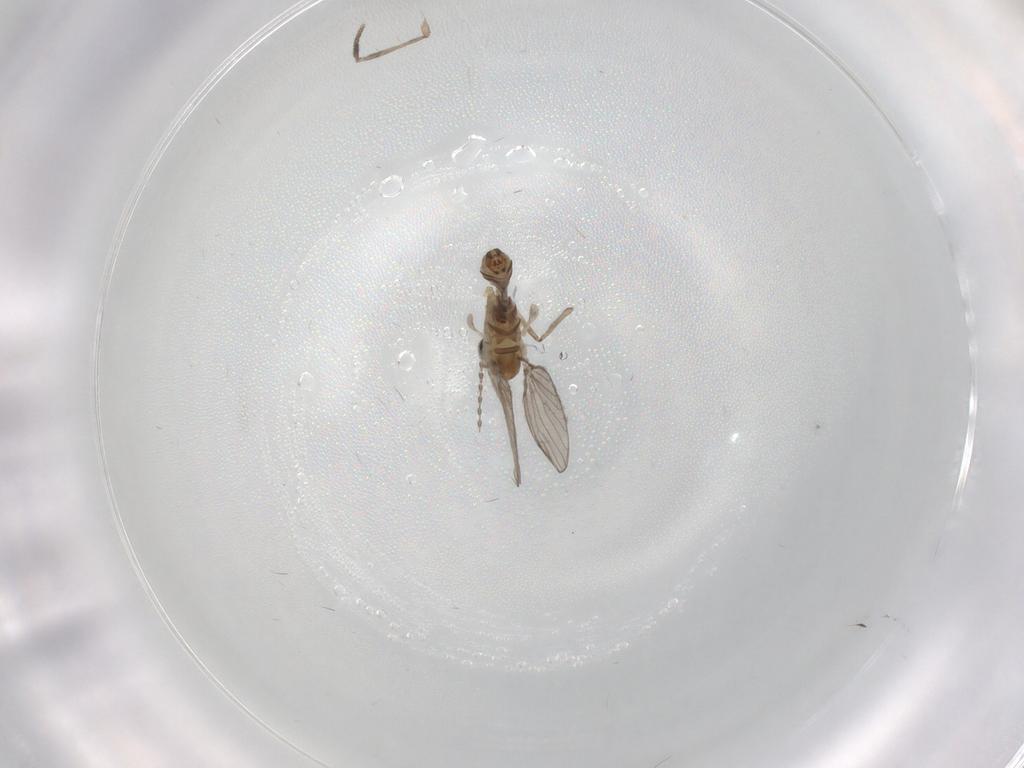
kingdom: Animalia
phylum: Arthropoda
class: Insecta
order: Diptera
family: Psychodidae
